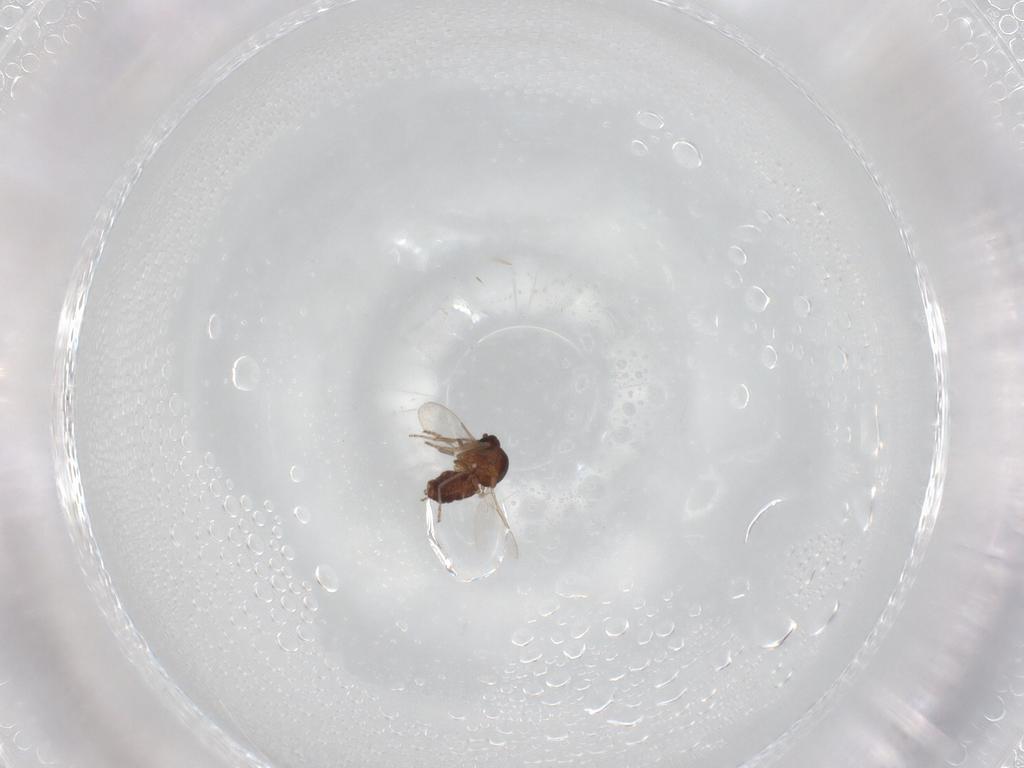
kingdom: Animalia
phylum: Arthropoda
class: Insecta
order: Diptera
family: Ceratopogonidae
